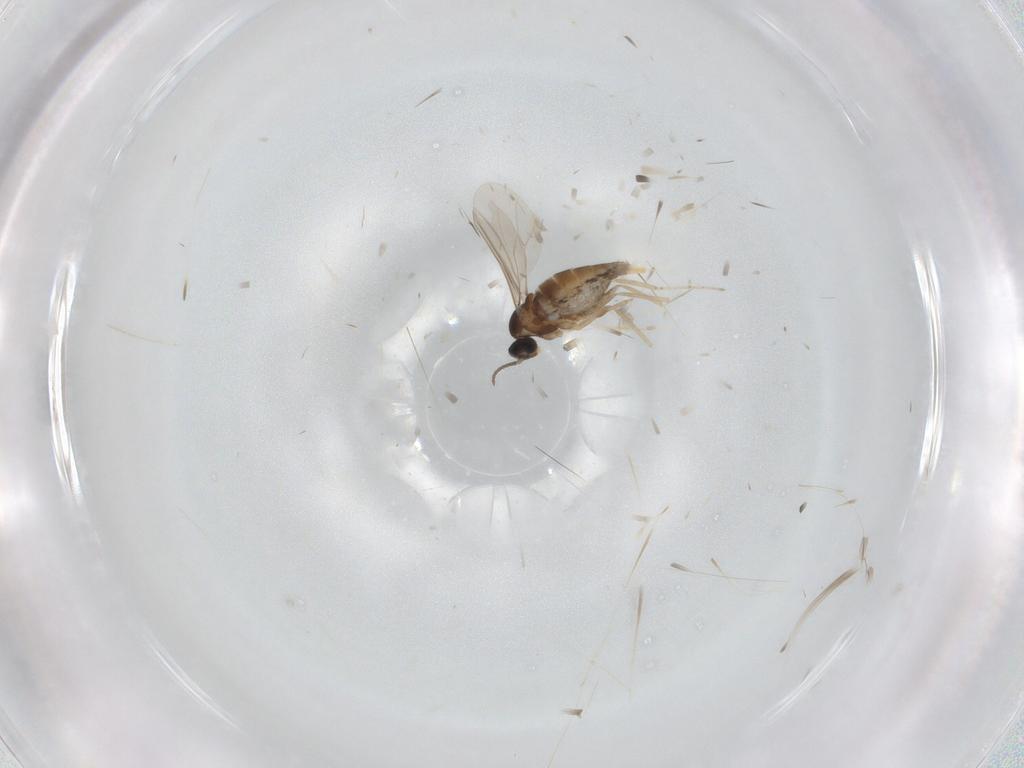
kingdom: Animalia
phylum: Arthropoda
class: Insecta
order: Diptera
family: Cecidomyiidae
